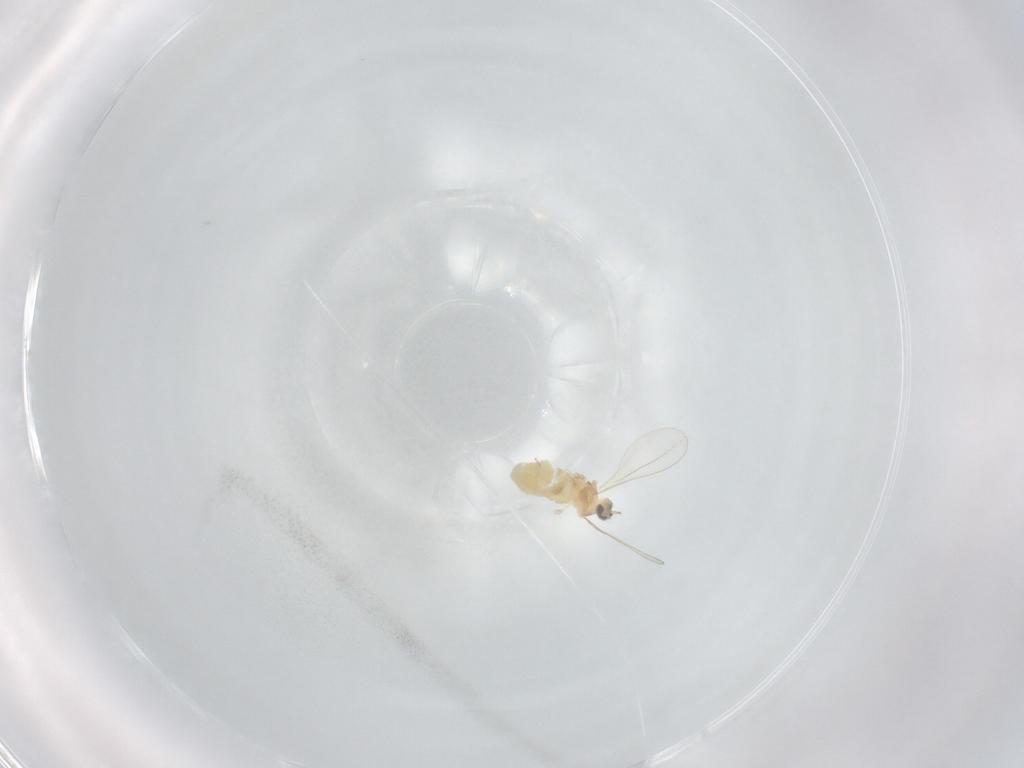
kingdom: Animalia
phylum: Arthropoda
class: Insecta
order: Diptera
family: Cecidomyiidae
